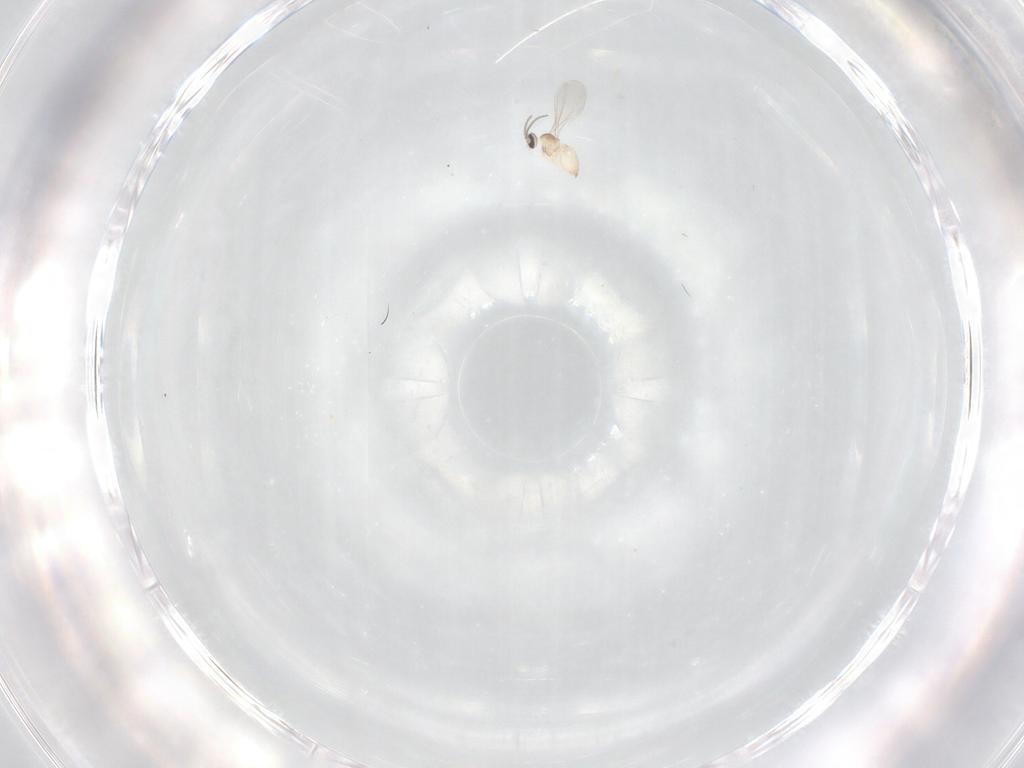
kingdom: Animalia
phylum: Arthropoda
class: Insecta
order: Diptera
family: Cecidomyiidae
